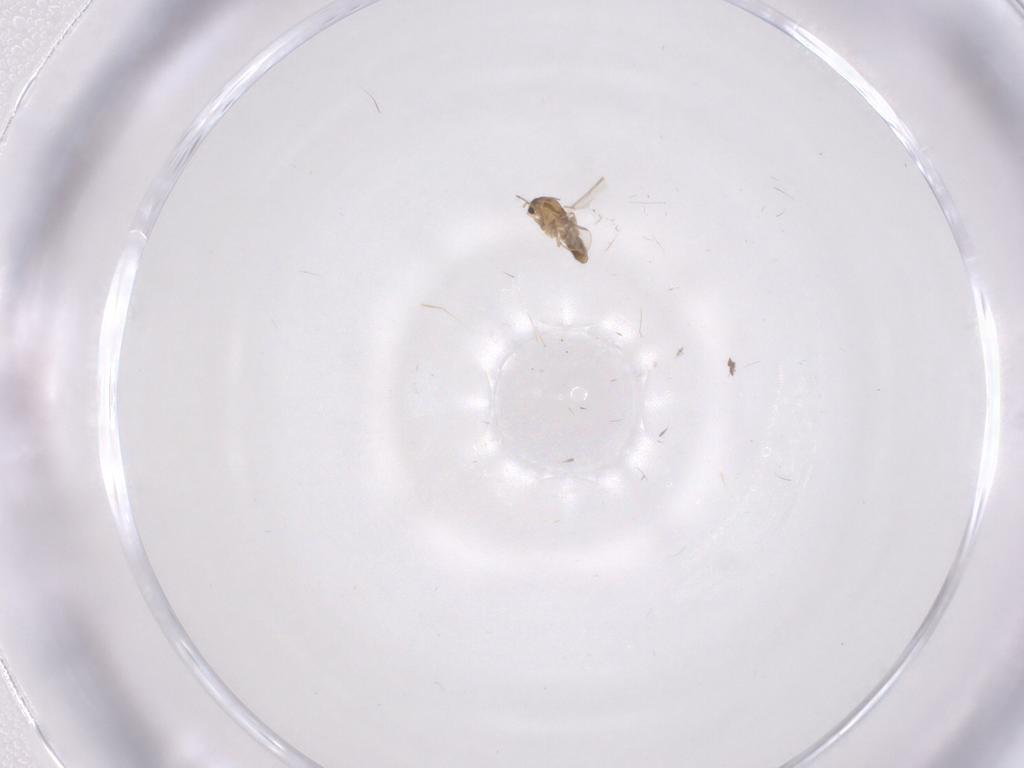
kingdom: Animalia
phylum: Arthropoda
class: Insecta
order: Diptera
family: Cecidomyiidae
